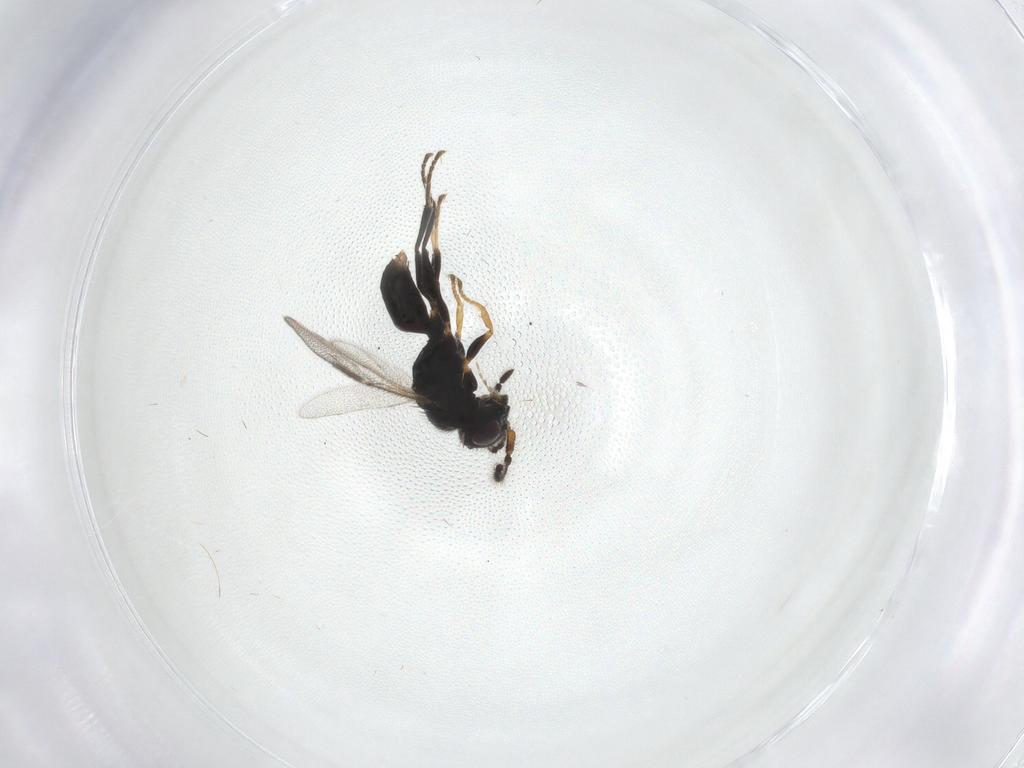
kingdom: Animalia
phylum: Arthropoda
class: Insecta
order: Hymenoptera
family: Dryinidae
